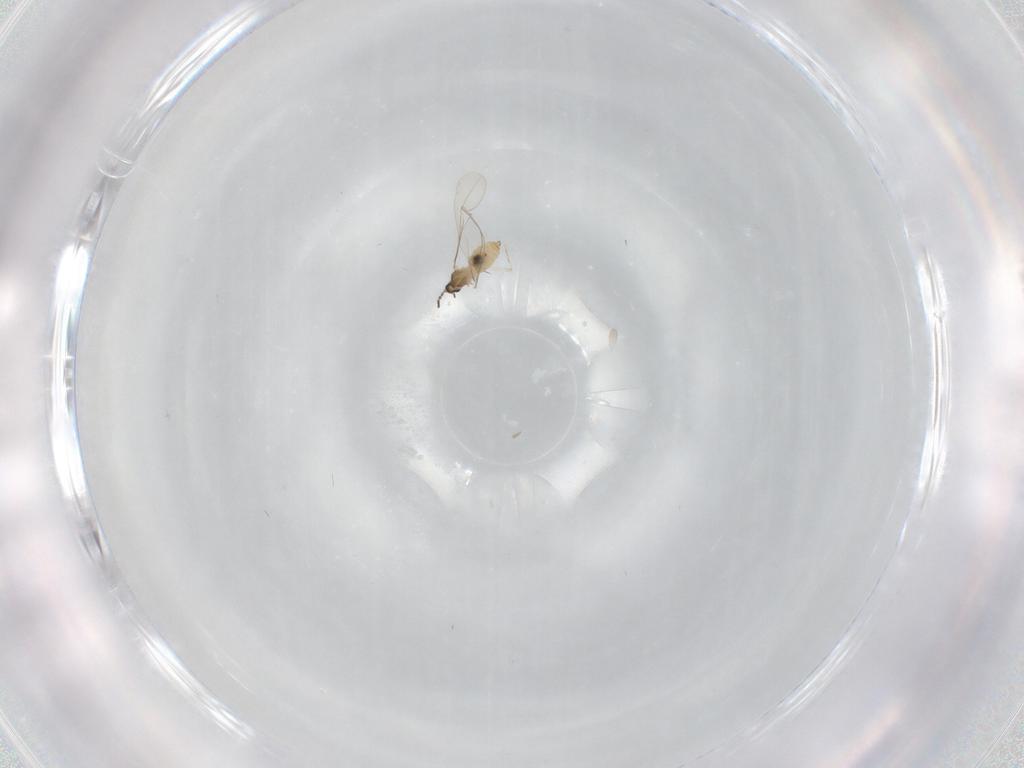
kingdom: Animalia
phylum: Arthropoda
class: Insecta
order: Diptera
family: Cecidomyiidae
